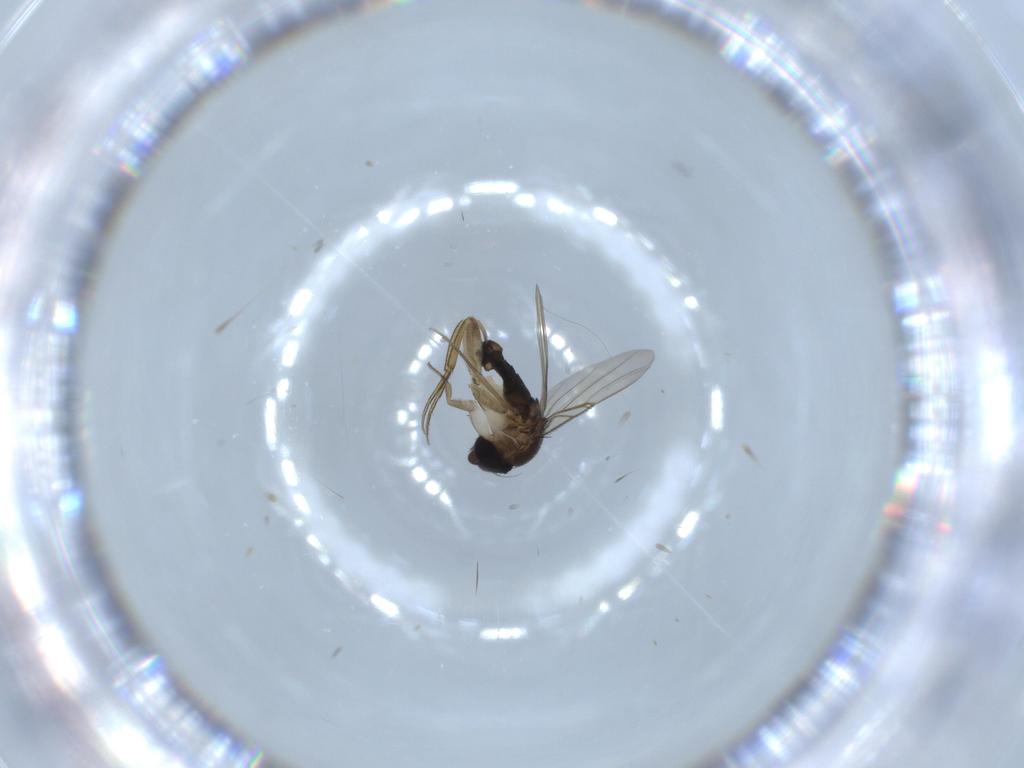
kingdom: Animalia
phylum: Arthropoda
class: Insecta
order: Diptera
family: Phoridae
